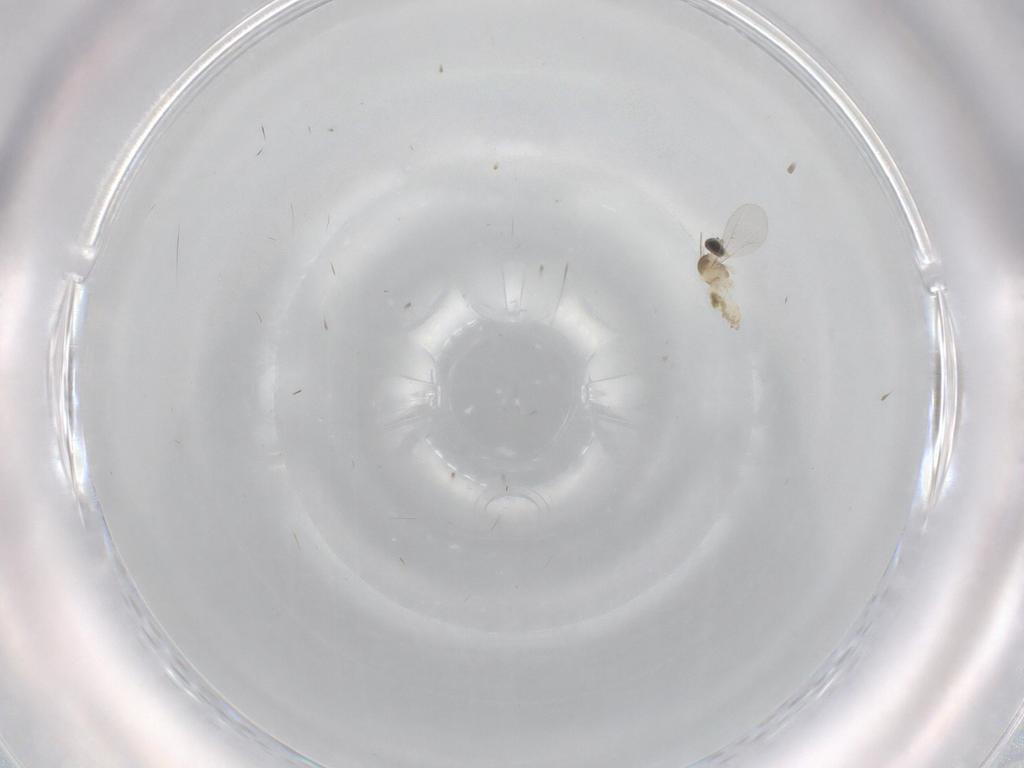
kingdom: Animalia
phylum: Arthropoda
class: Insecta
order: Diptera
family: Cecidomyiidae
